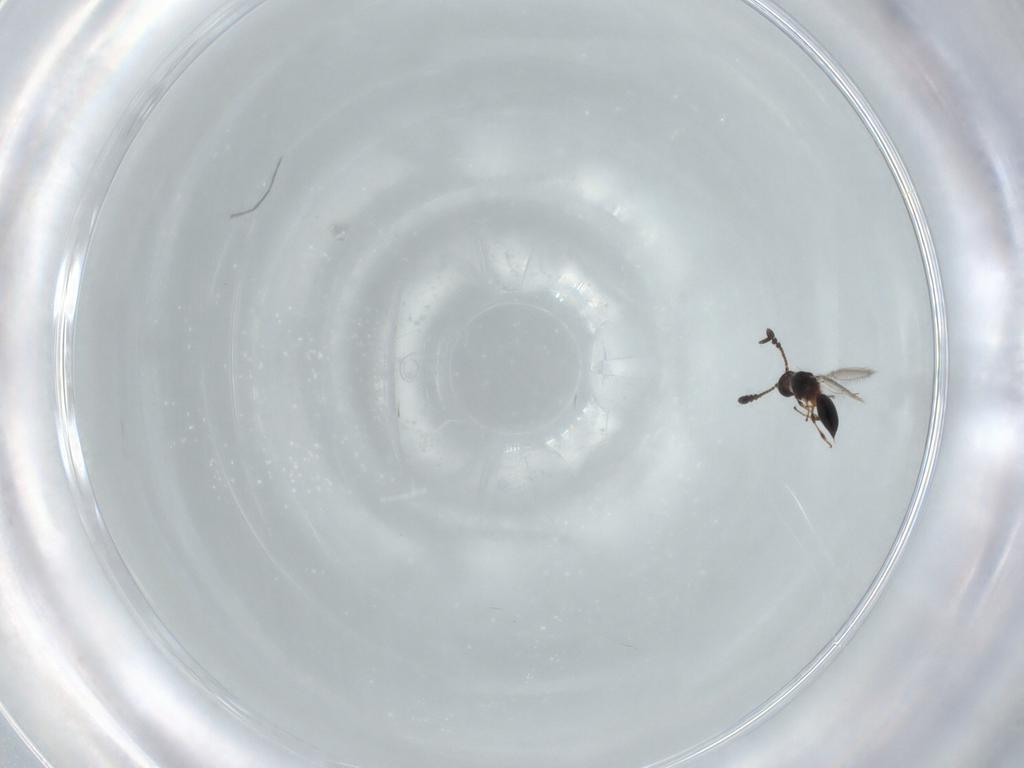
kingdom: Animalia
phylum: Arthropoda
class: Insecta
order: Hymenoptera
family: Diapriidae
